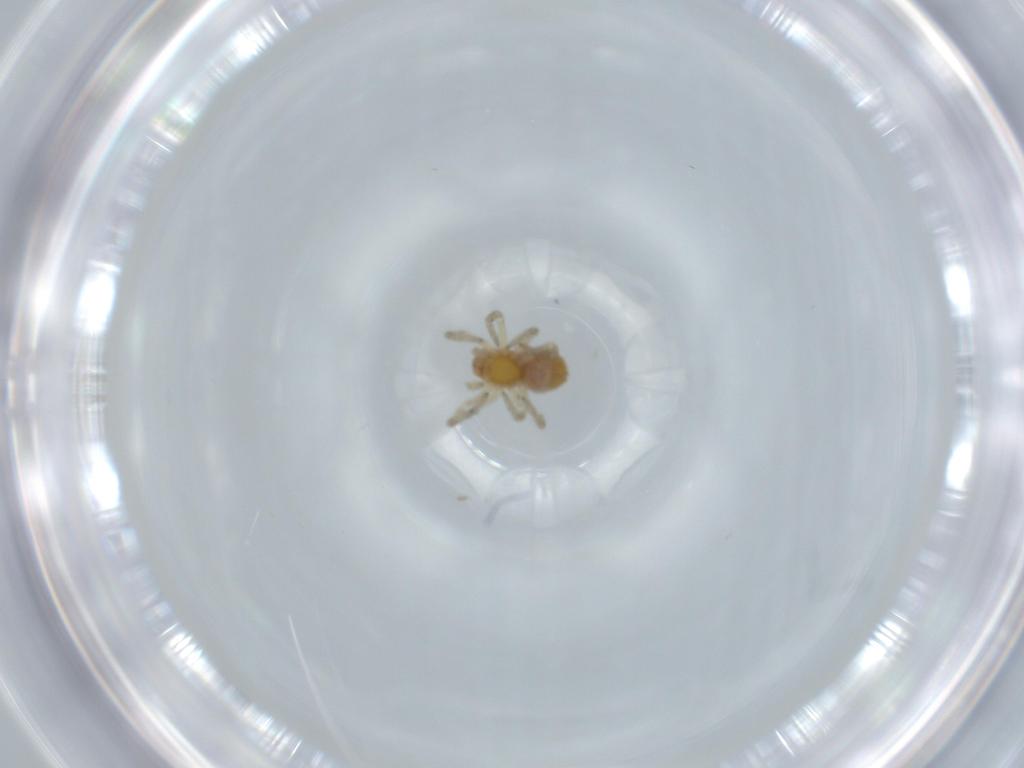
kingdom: Animalia
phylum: Arthropoda
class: Arachnida
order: Araneae
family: Dictynidae
